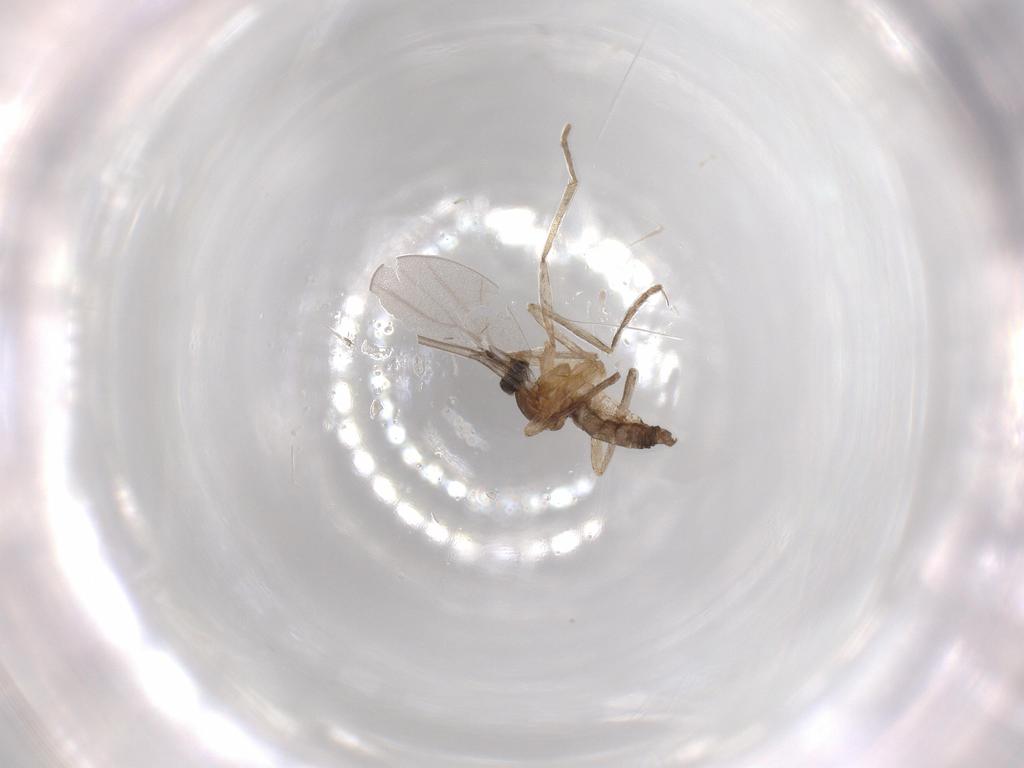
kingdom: Animalia
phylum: Arthropoda
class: Insecta
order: Diptera
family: Cecidomyiidae
